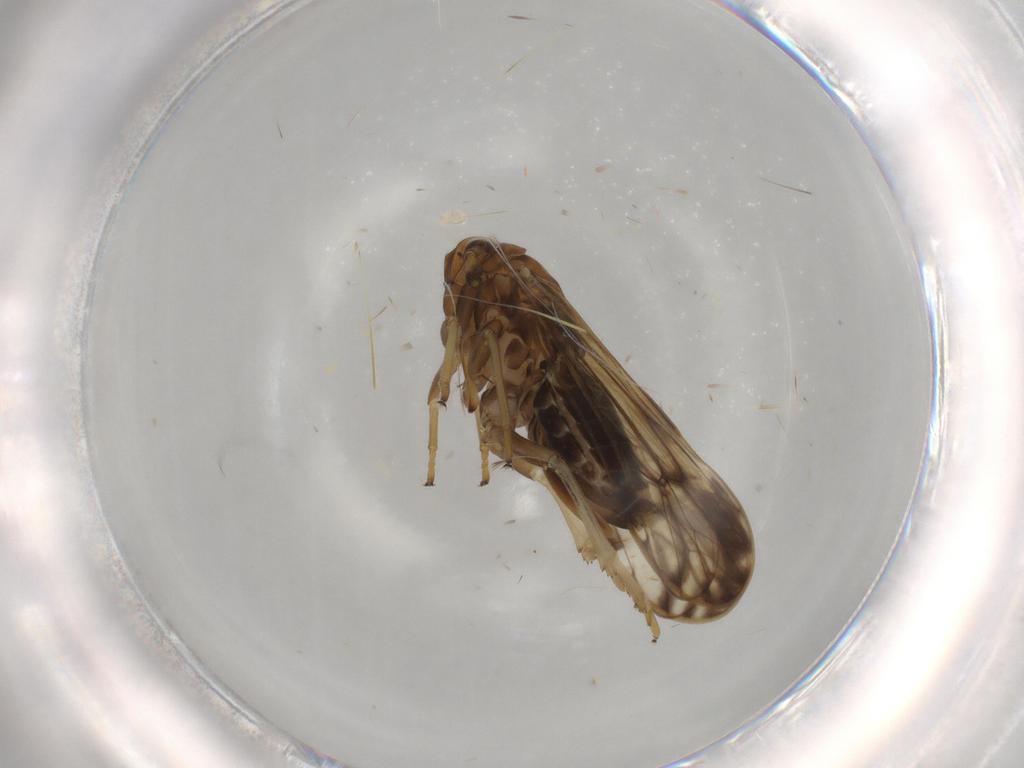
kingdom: Animalia
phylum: Arthropoda
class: Insecta
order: Hemiptera
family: Delphacidae
